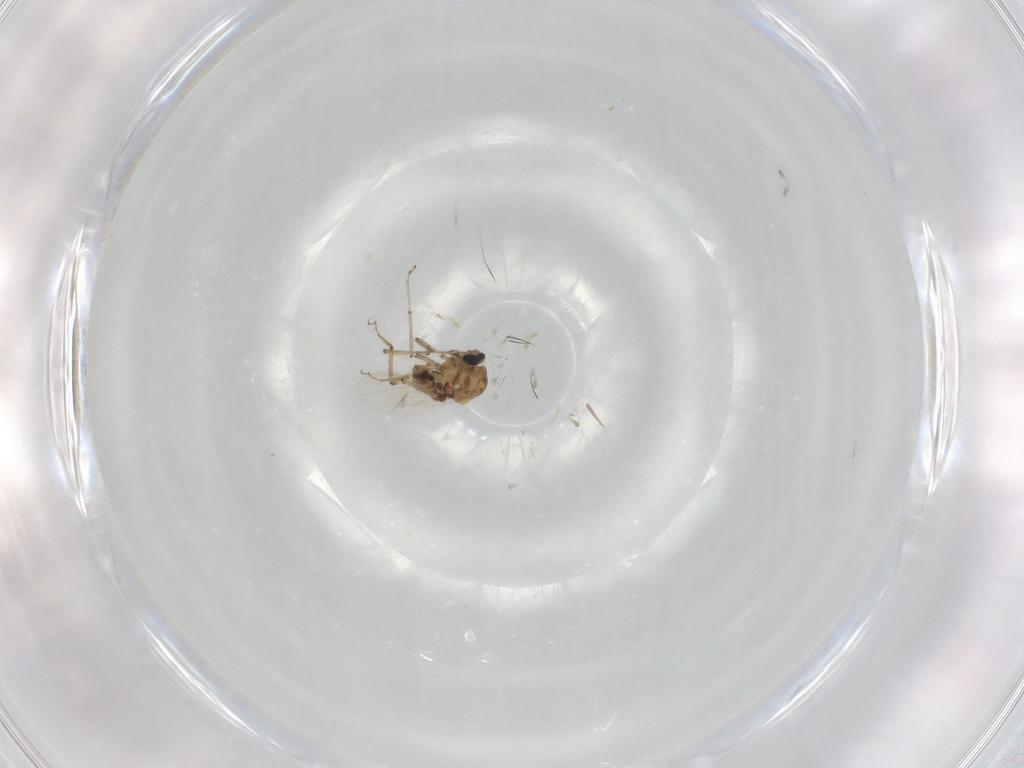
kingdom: Animalia
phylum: Arthropoda
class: Insecta
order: Diptera
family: Ceratopogonidae
